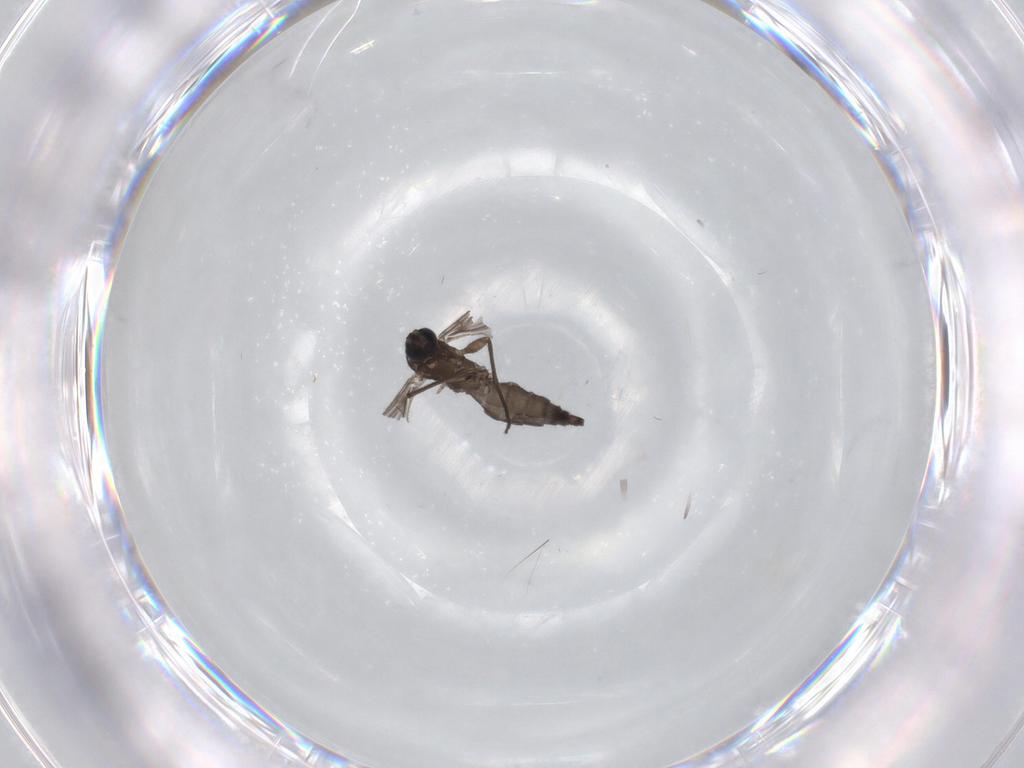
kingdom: Animalia
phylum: Arthropoda
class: Insecta
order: Diptera
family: Sciaridae
